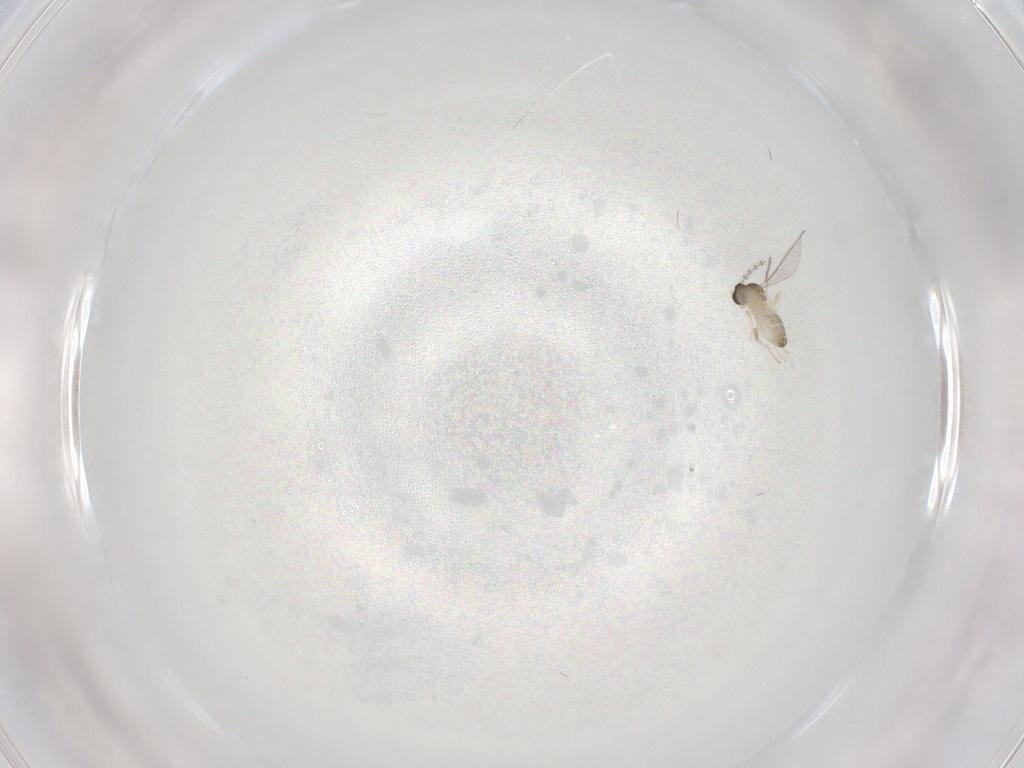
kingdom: Animalia
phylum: Arthropoda
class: Insecta
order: Diptera
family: Cecidomyiidae
